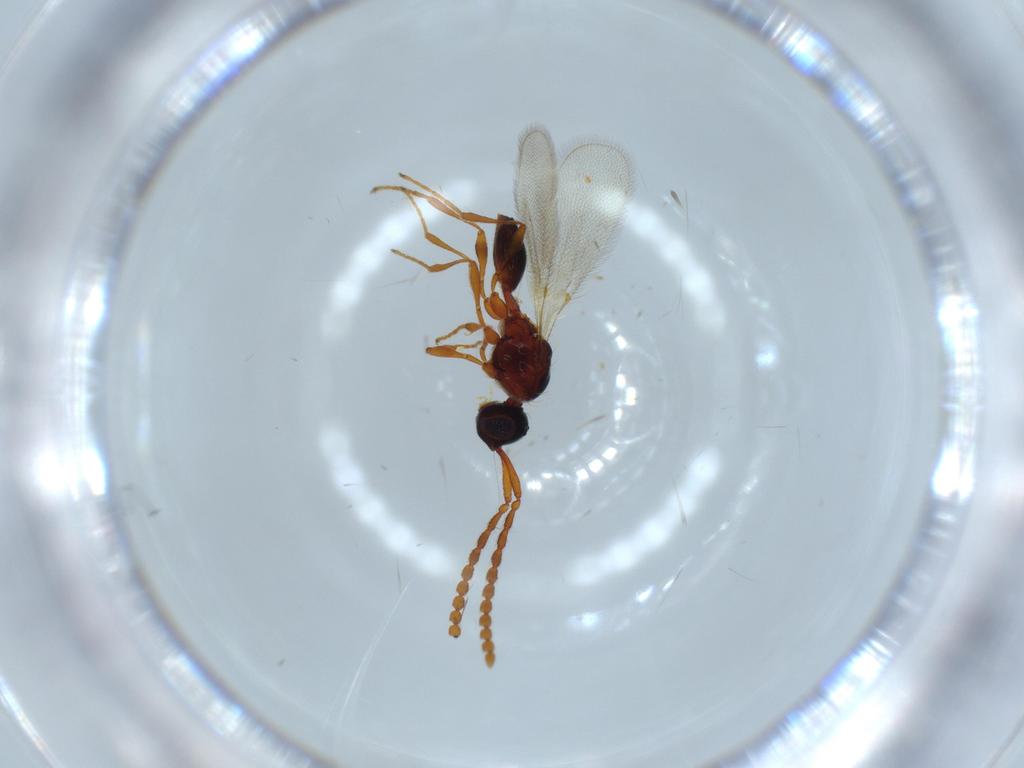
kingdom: Animalia
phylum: Arthropoda
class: Insecta
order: Hymenoptera
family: Diapriidae
